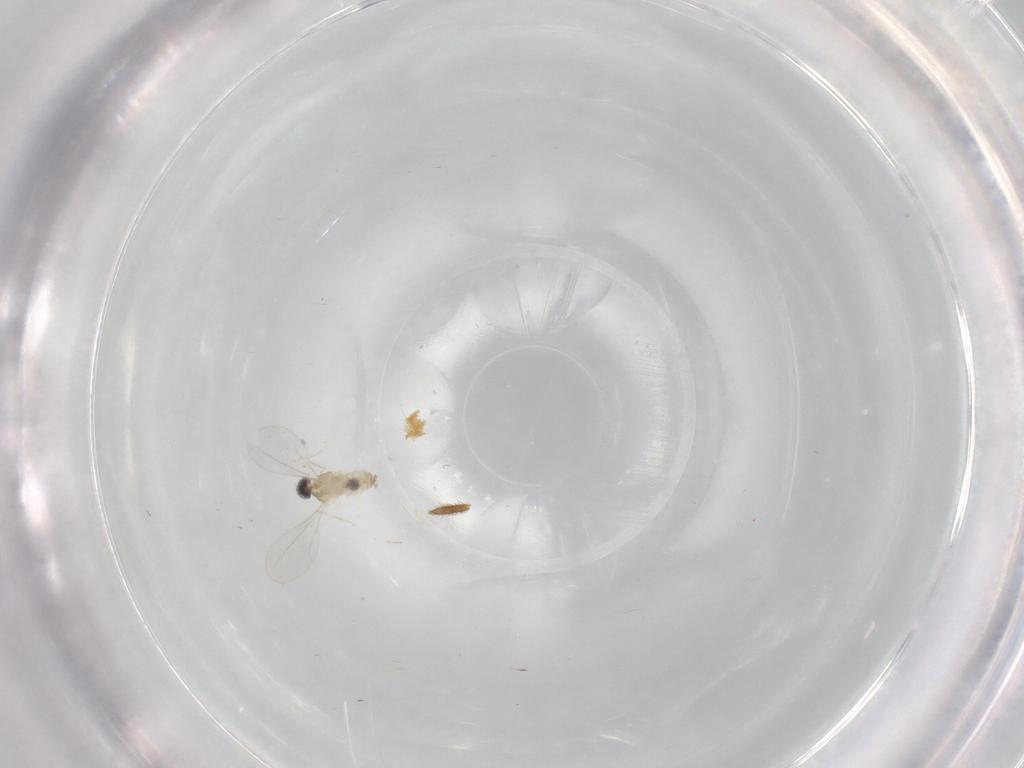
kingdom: Animalia
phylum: Arthropoda
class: Insecta
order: Diptera
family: Cecidomyiidae
